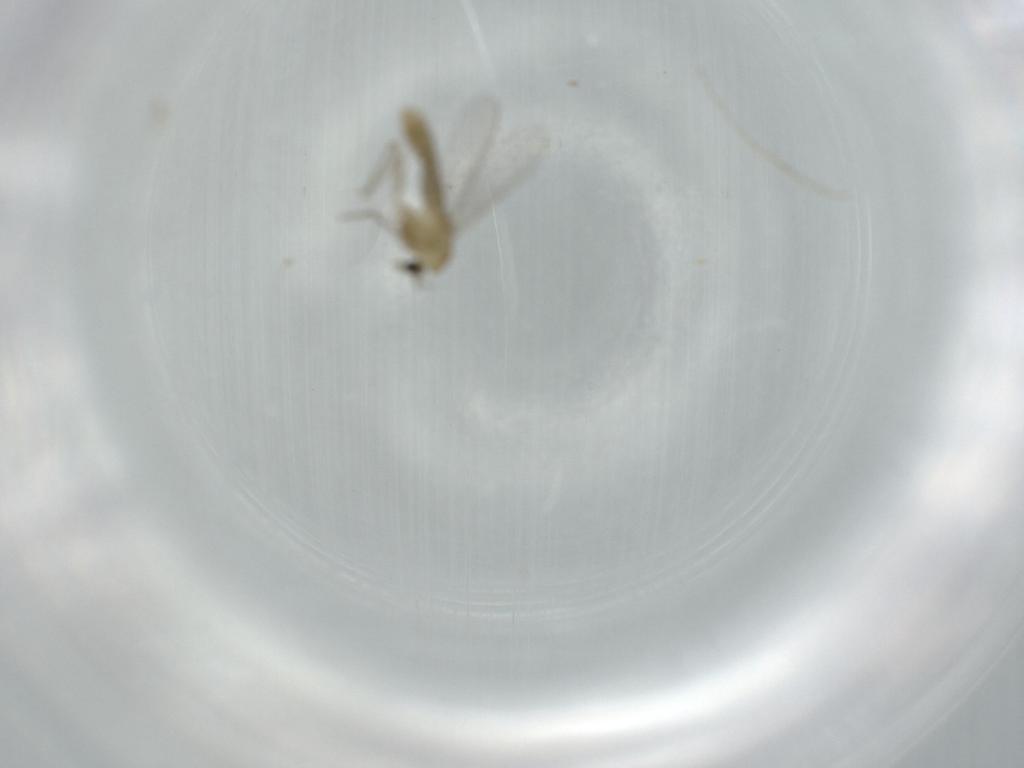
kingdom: Animalia
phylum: Arthropoda
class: Insecta
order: Diptera
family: Chironomidae
